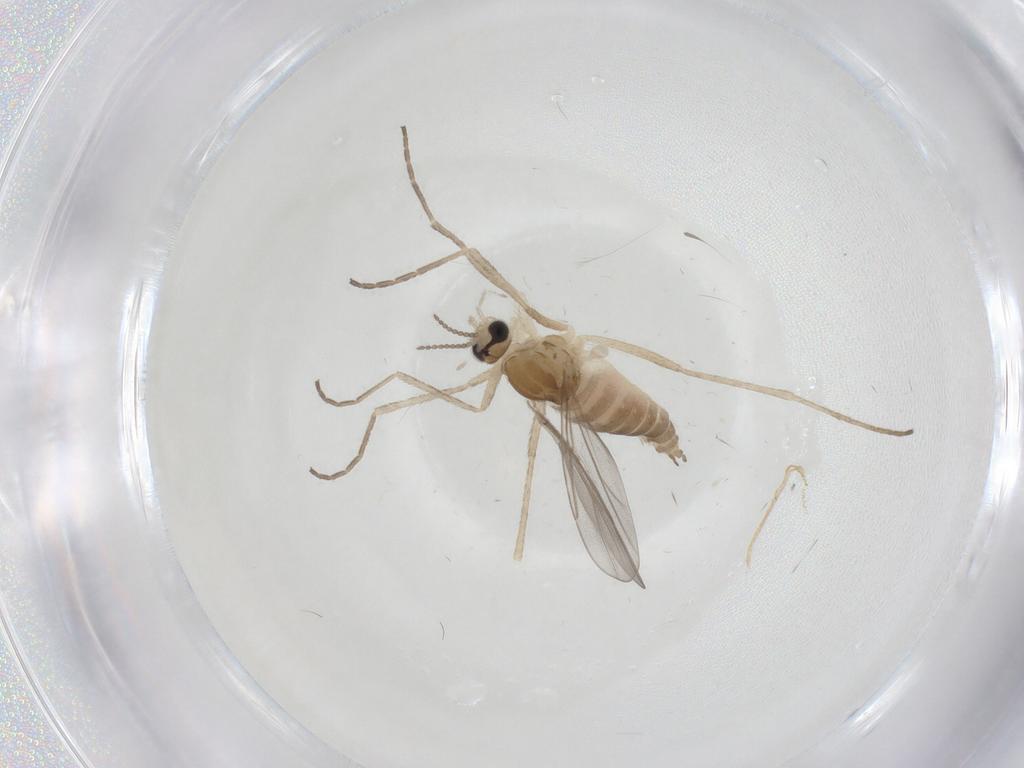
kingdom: Animalia
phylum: Arthropoda
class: Insecta
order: Diptera
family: Cecidomyiidae
